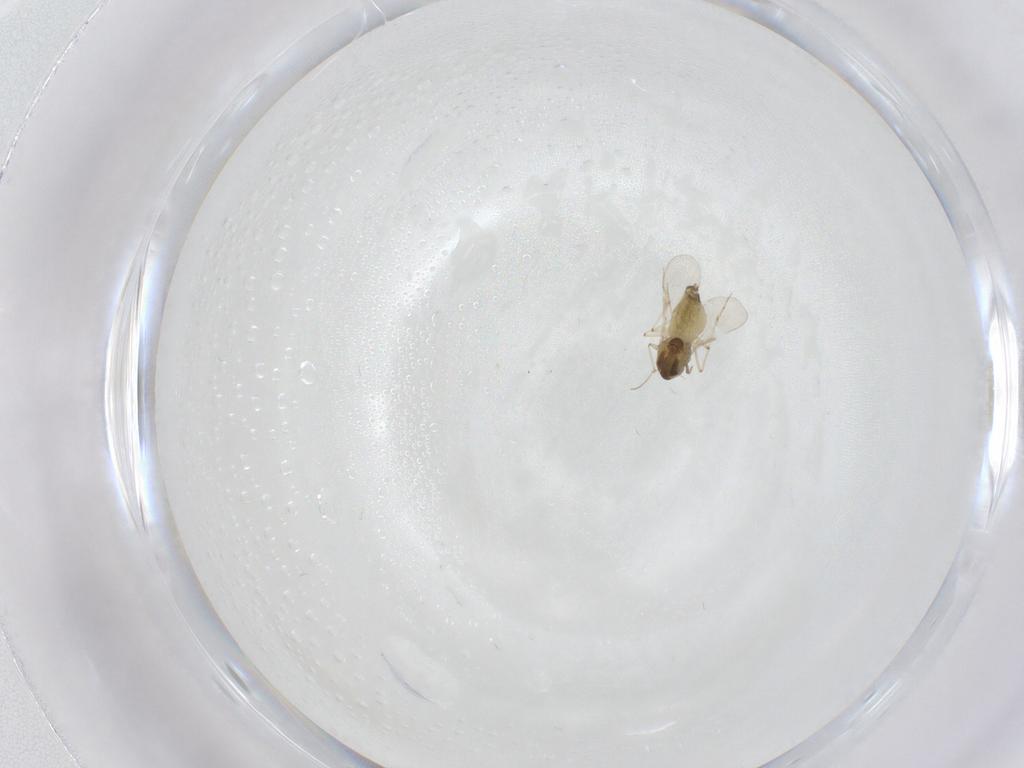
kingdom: Animalia
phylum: Arthropoda
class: Insecta
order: Diptera
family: Chironomidae
